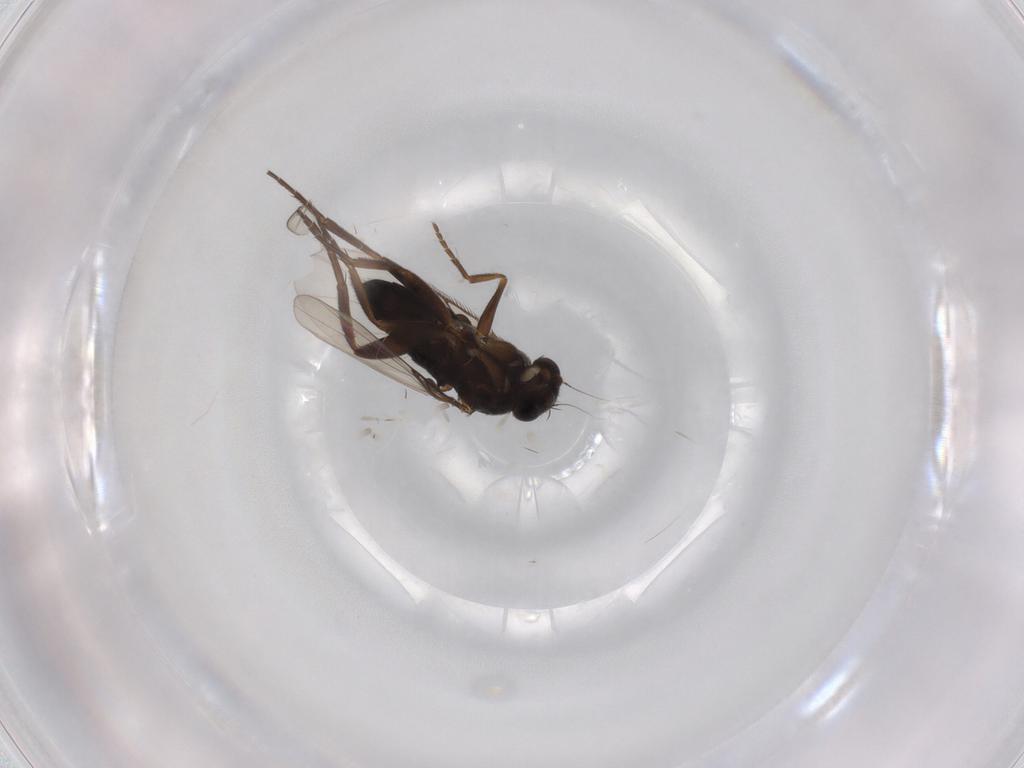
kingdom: Animalia
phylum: Arthropoda
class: Insecta
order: Diptera
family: Phoridae
